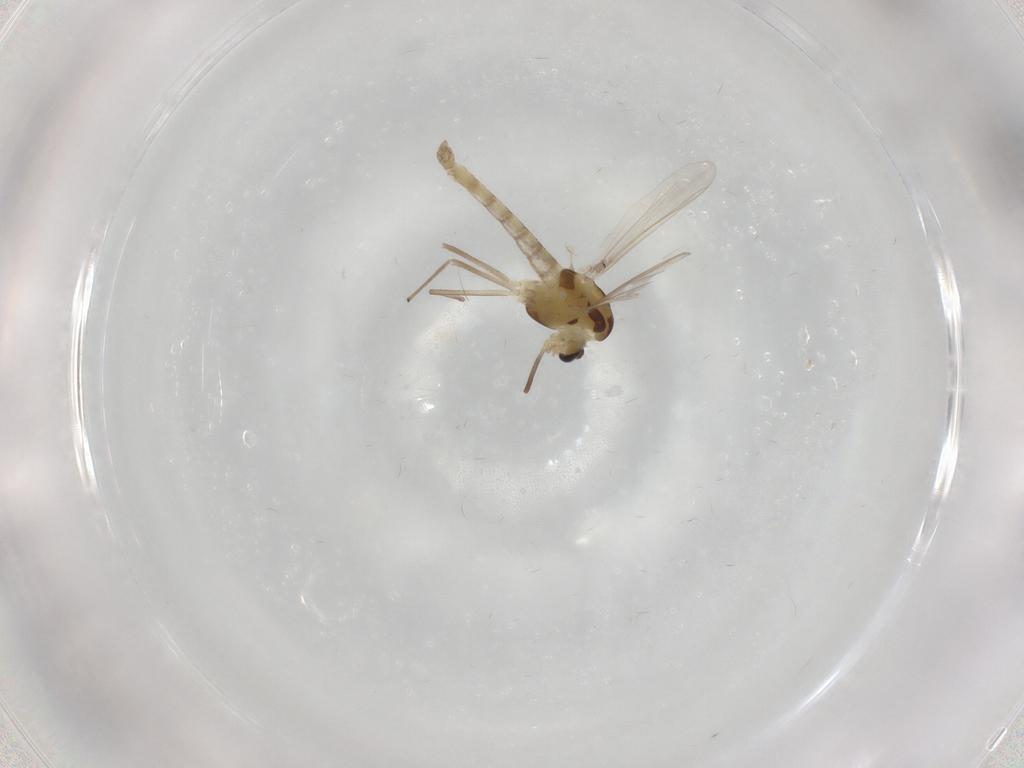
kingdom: Animalia
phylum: Arthropoda
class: Insecta
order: Diptera
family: Chironomidae
